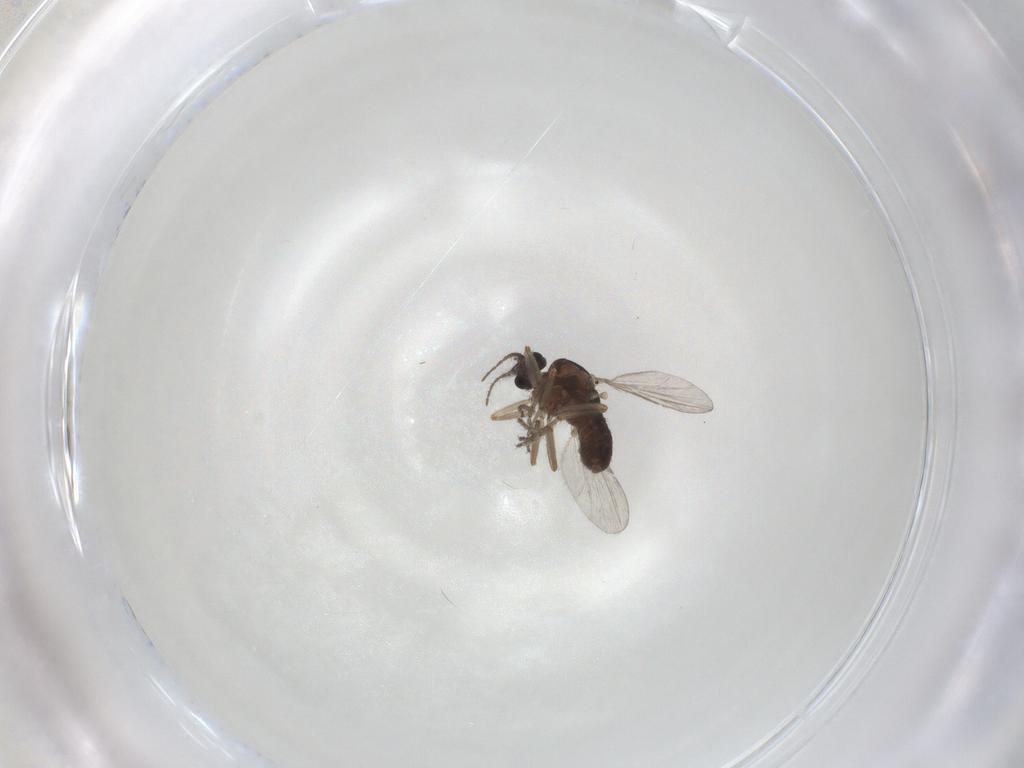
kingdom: Animalia
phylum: Arthropoda
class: Insecta
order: Diptera
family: Ceratopogonidae
